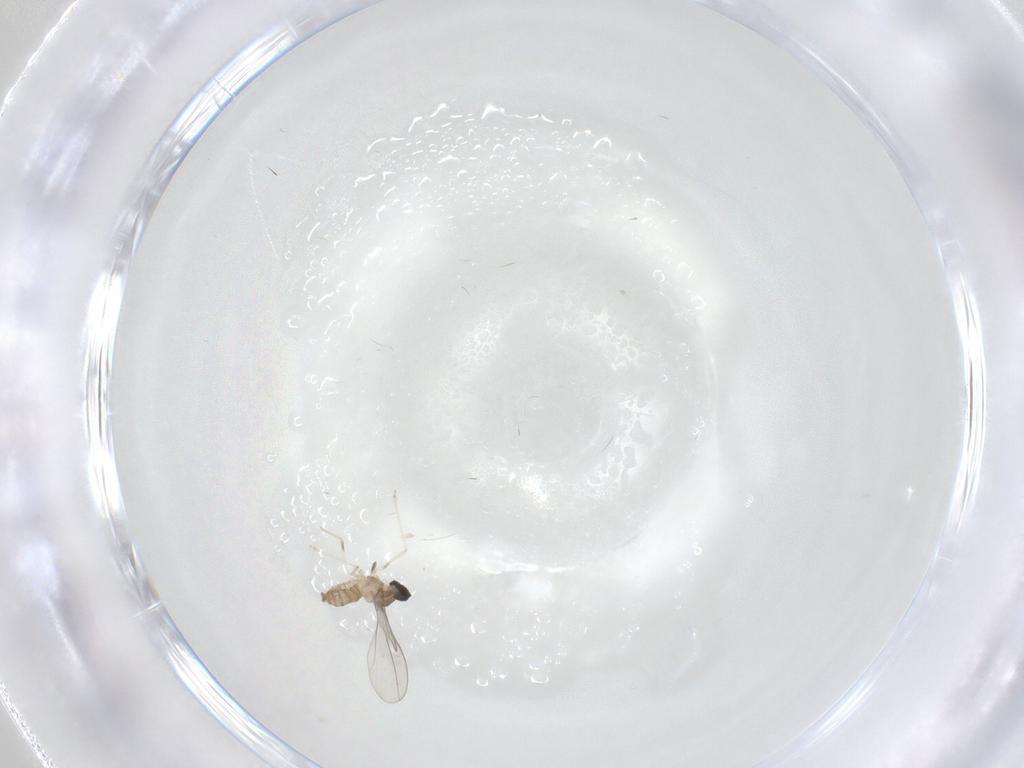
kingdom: Animalia
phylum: Arthropoda
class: Insecta
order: Diptera
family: Cecidomyiidae
